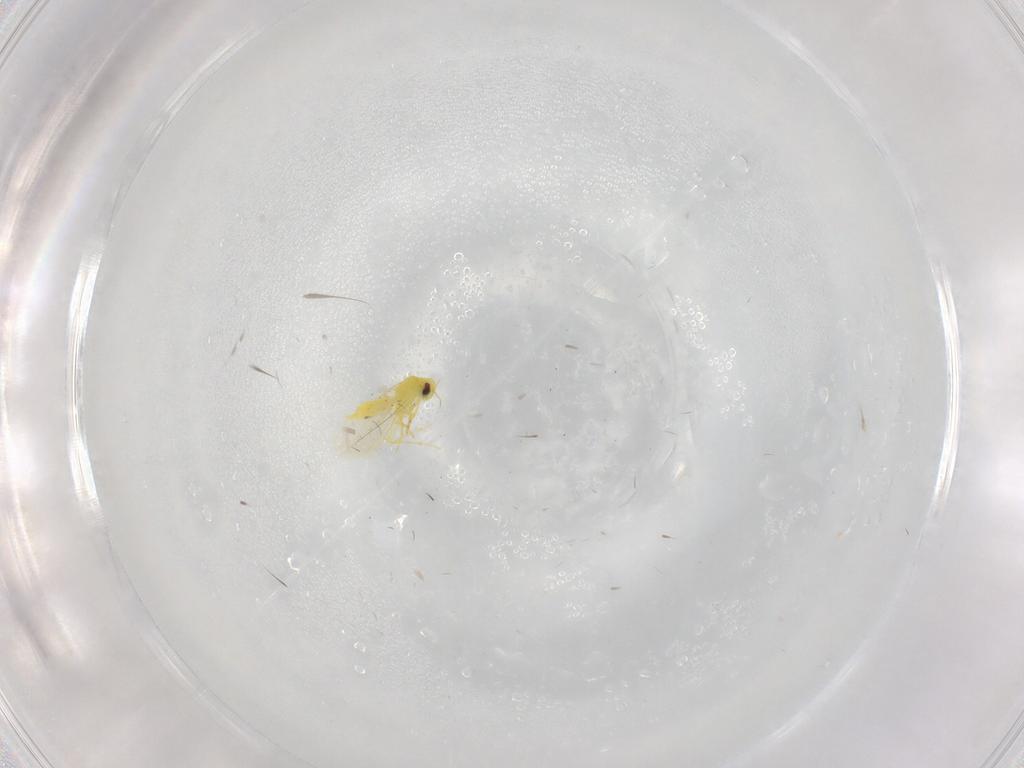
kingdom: Animalia
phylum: Arthropoda
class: Insecta
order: Hemiptera
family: Aleyrodidae
